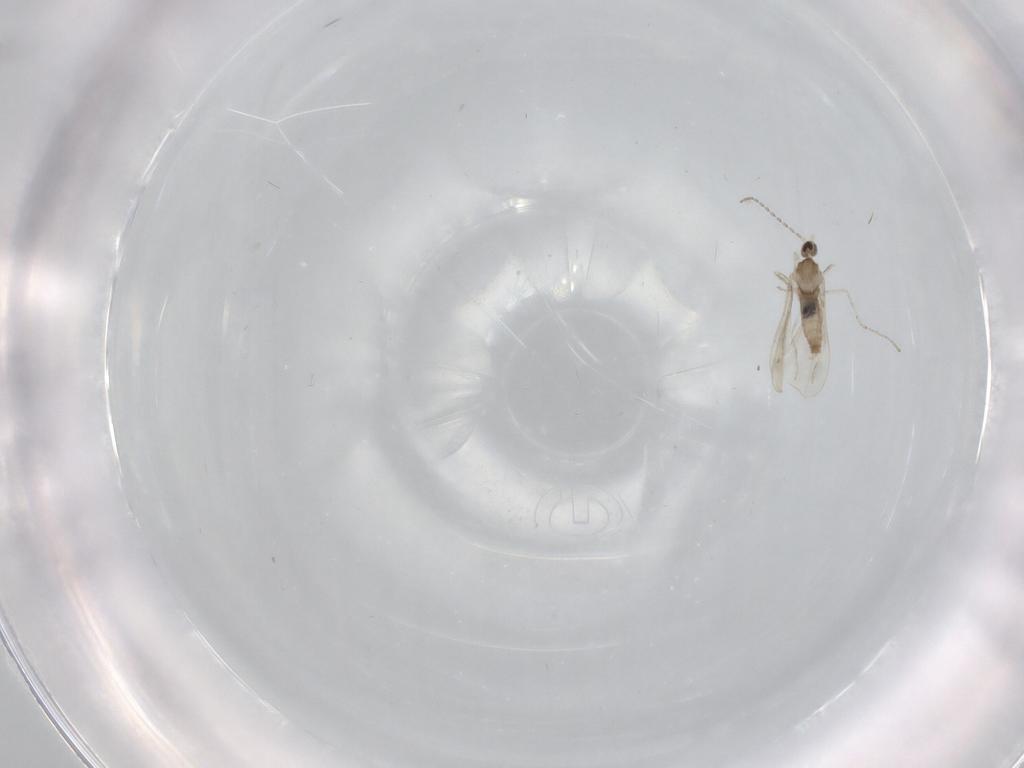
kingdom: Animalia
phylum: Arthropoda
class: Insecta
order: Diptera
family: Cecidomyiidae
